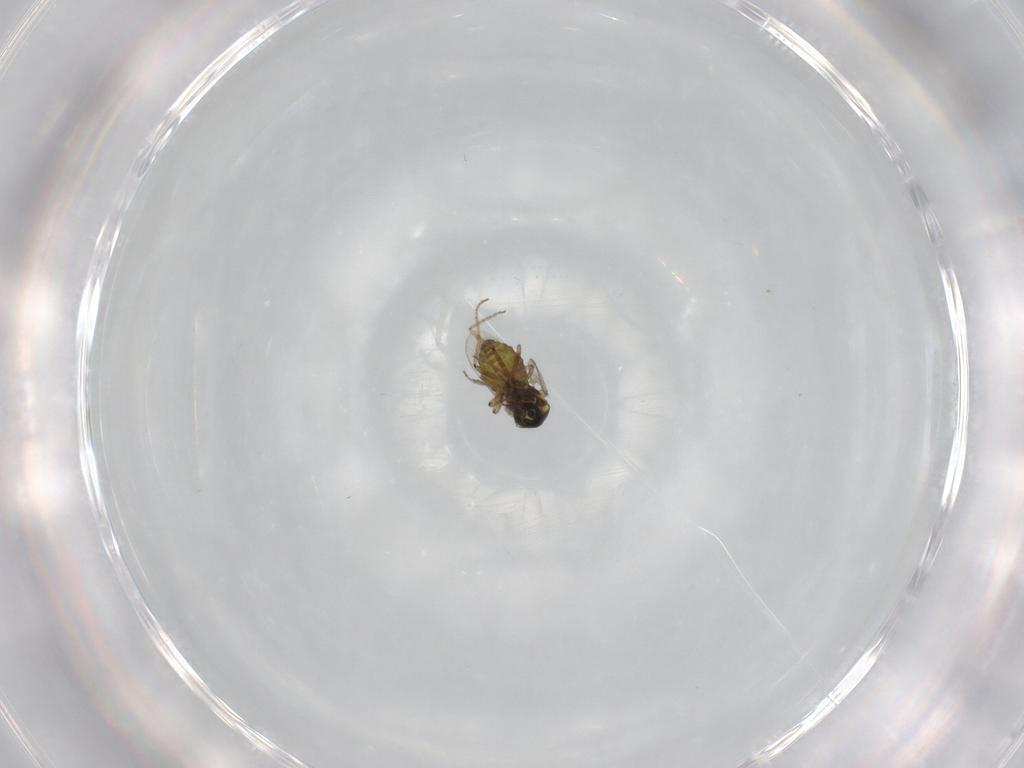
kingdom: Animalia
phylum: Arthropoda
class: Insecta
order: Diptera
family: Ceratopogonidae
